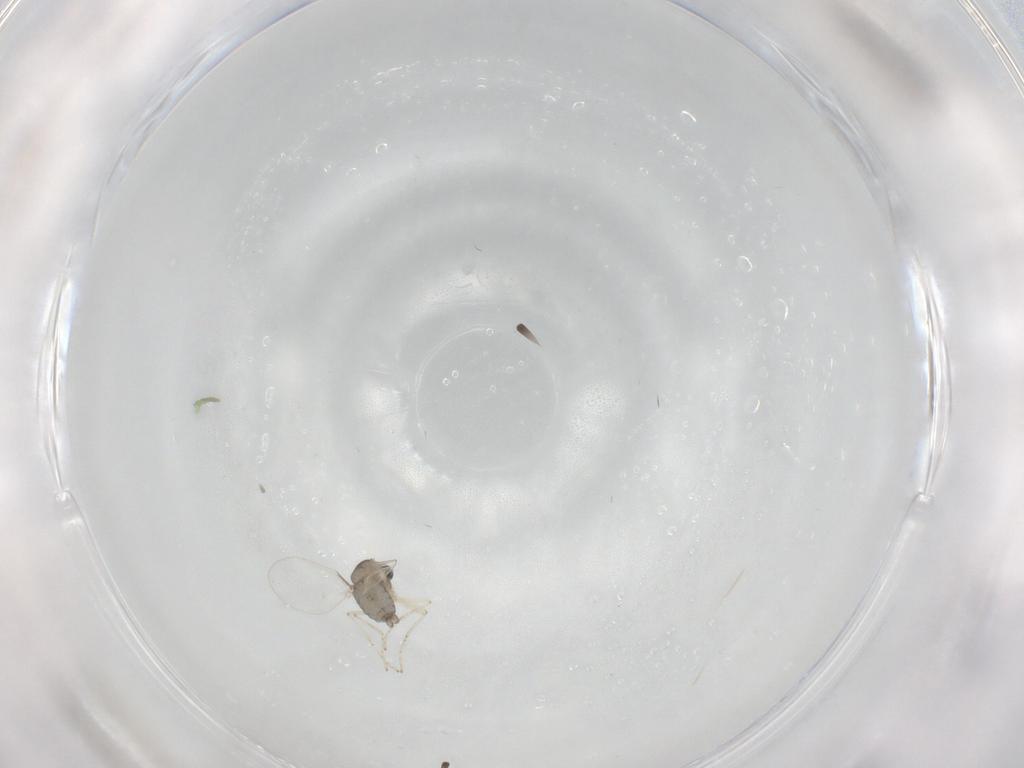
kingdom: Animalia
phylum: Arthropoda
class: Insecta
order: Diptera
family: Cecidomyiidae
